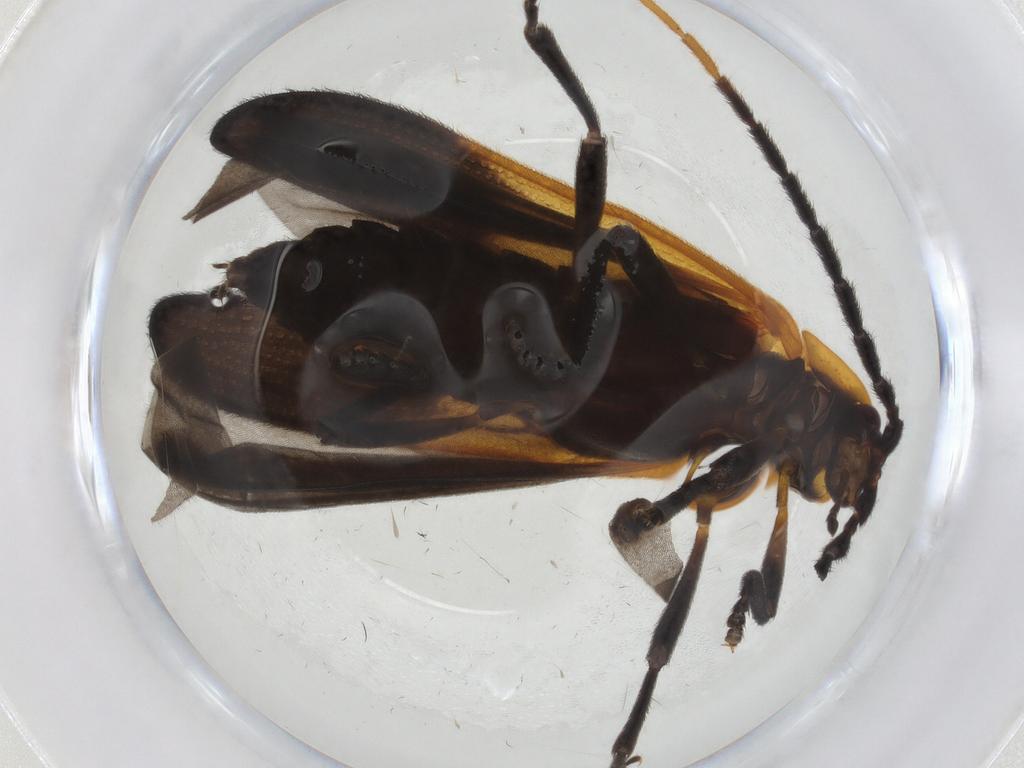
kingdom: Animalia
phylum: Arthropoda
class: Insecta
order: Coleoptera
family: Lycidae
